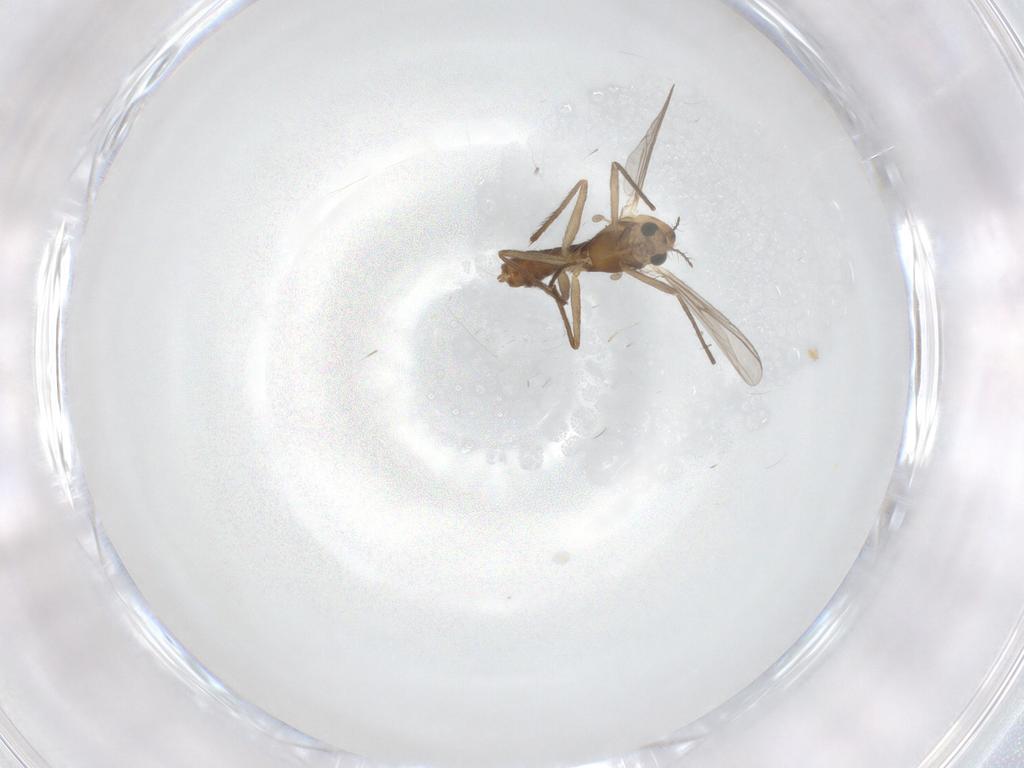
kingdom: Animalia
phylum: Arthropoda
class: Insecta
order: Diptera
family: Chironomidae
